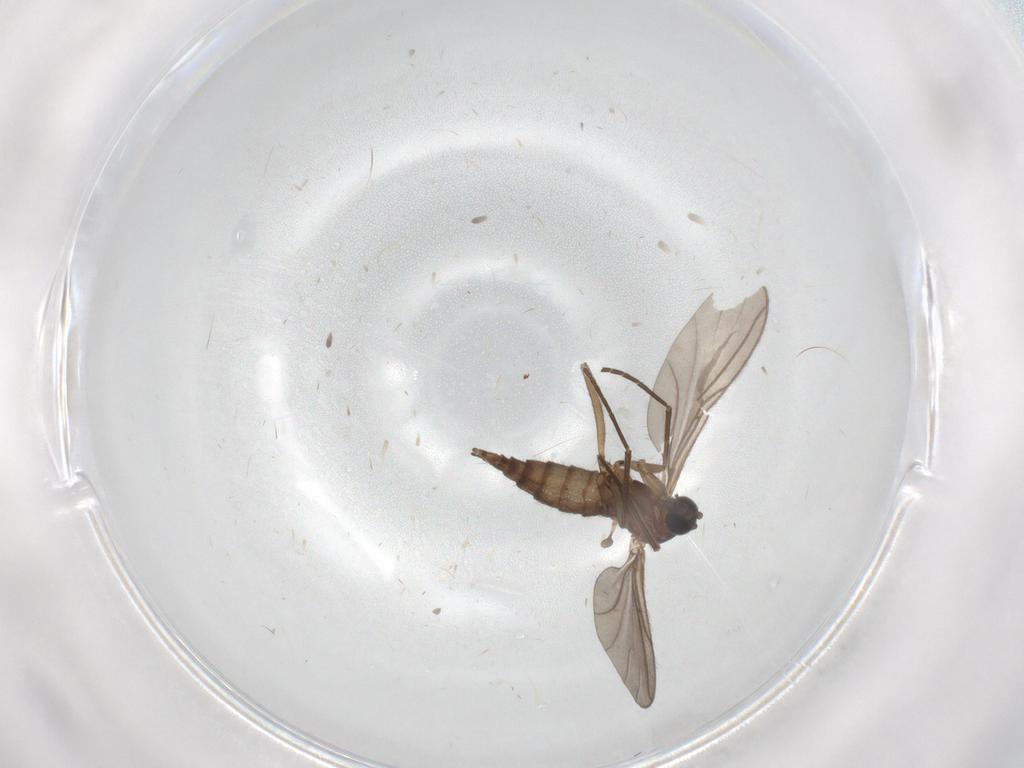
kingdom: Animalia
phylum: Arthropoda
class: Insecta
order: Diptera
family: Sciaridae
